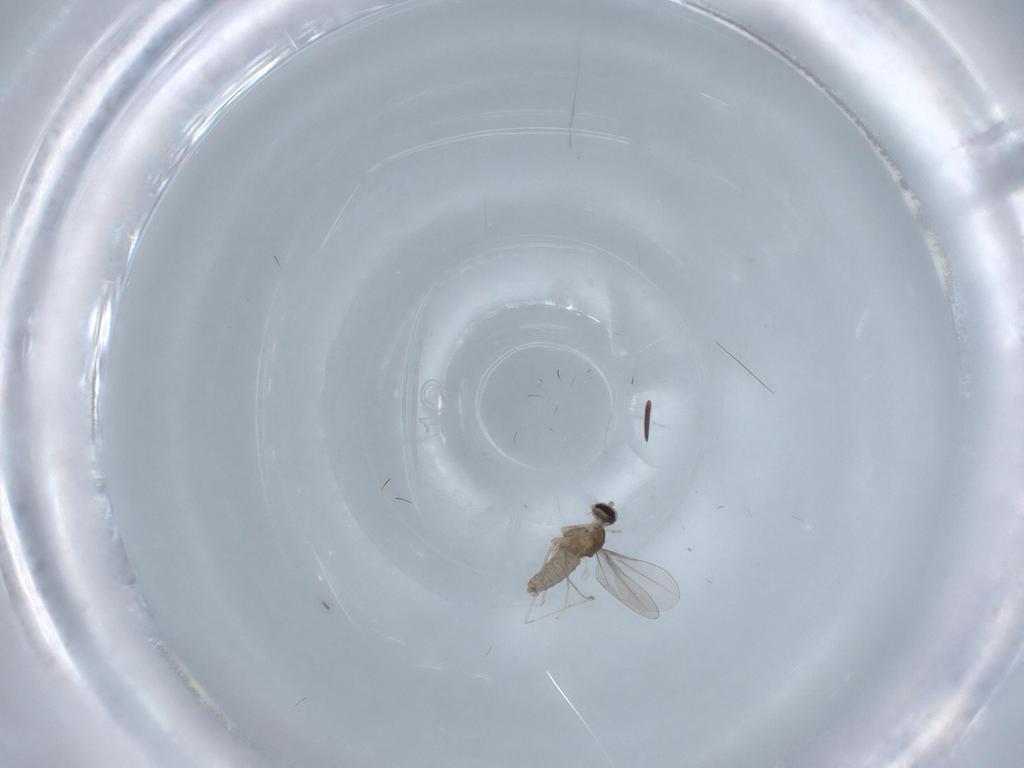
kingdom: Animalia
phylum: Arthropoda
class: Insecta
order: Diptera
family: Cecidomyiidae
